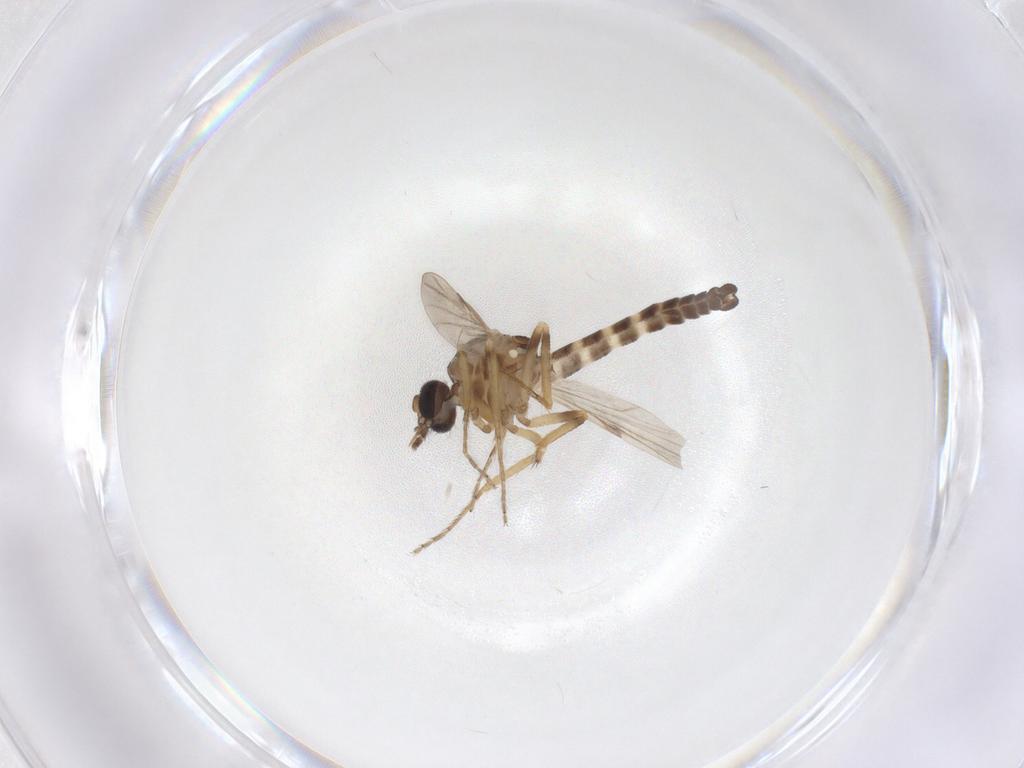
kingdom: Animalia
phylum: Arthropoda
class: Insecta
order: Diptera
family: Ceratopogonidae
